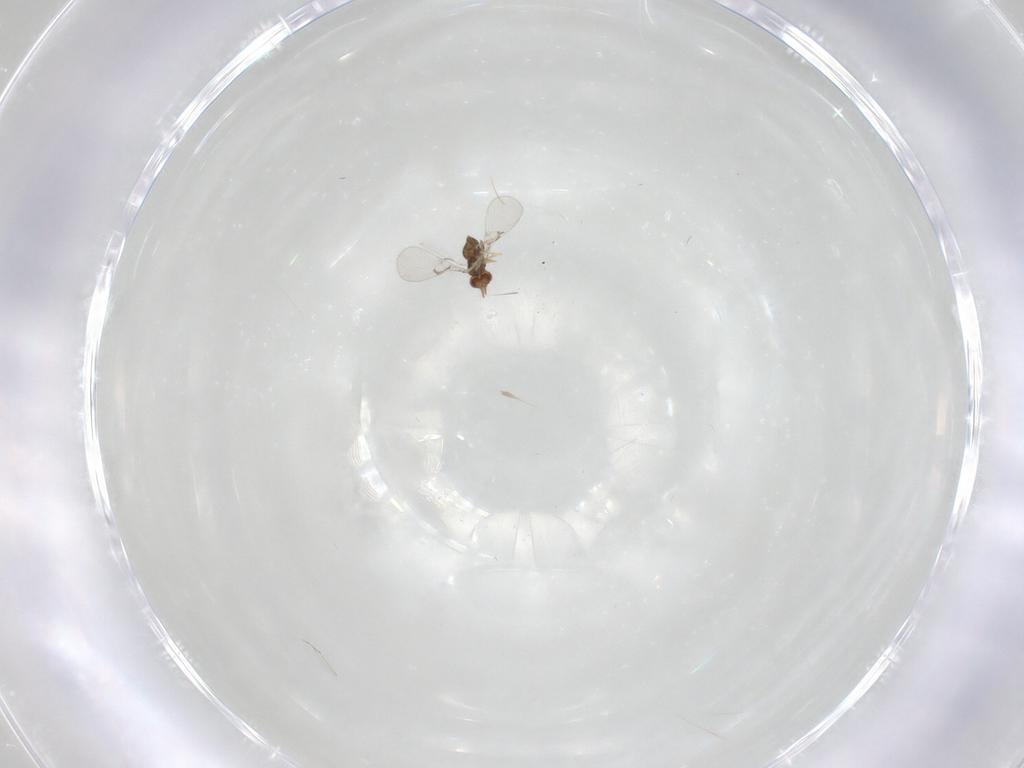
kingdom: Animalia
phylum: Arthropoda
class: Insecta
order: Hymenoptera
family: Trichogrammatidae
